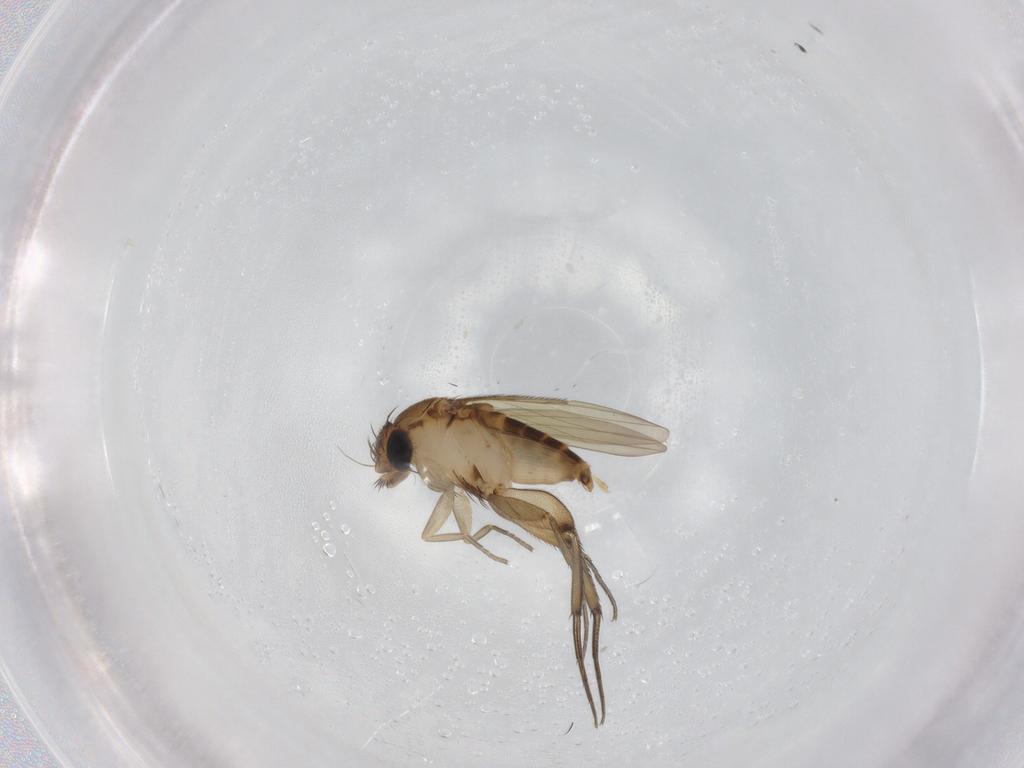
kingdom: Animalia
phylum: Arthropoda
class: Insecta
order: Diptera
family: Phoridae
